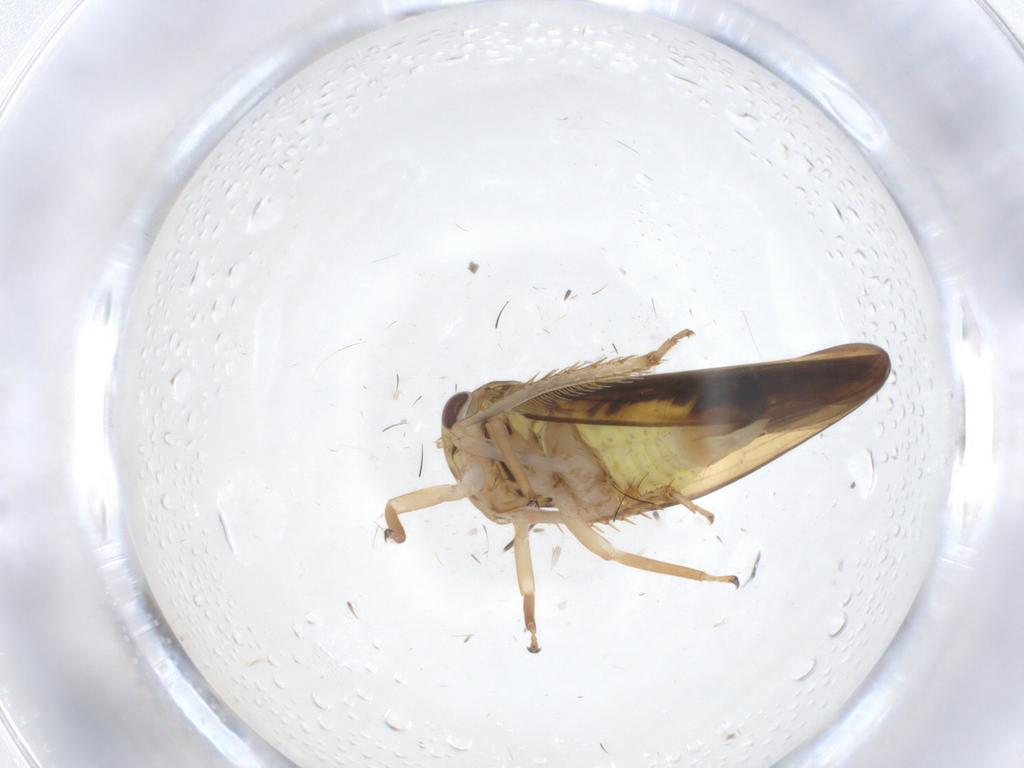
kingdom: Animalia
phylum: Arthropoda
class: Insecta
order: Hemiptera
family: Cicadellidae
